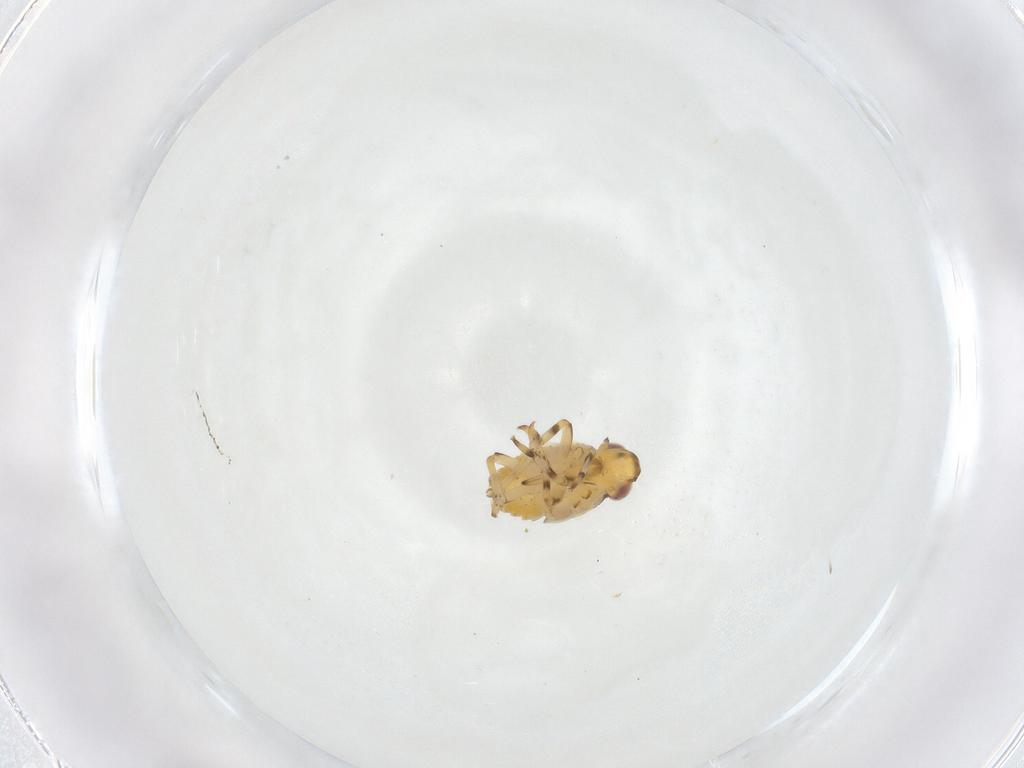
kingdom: Animalia
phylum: Arthropoda
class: Insecta
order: Hemiptera
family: Issidae
